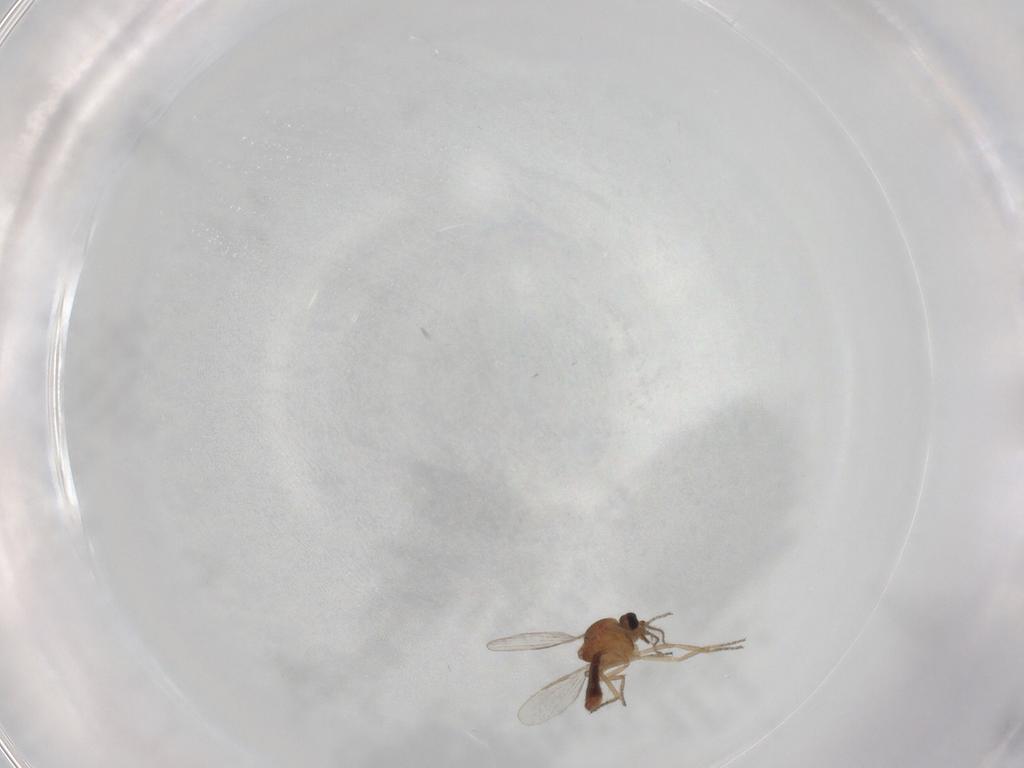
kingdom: Animalia
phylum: Arthropoda
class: Insecta
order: Diptera
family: Ceratopogonidae
